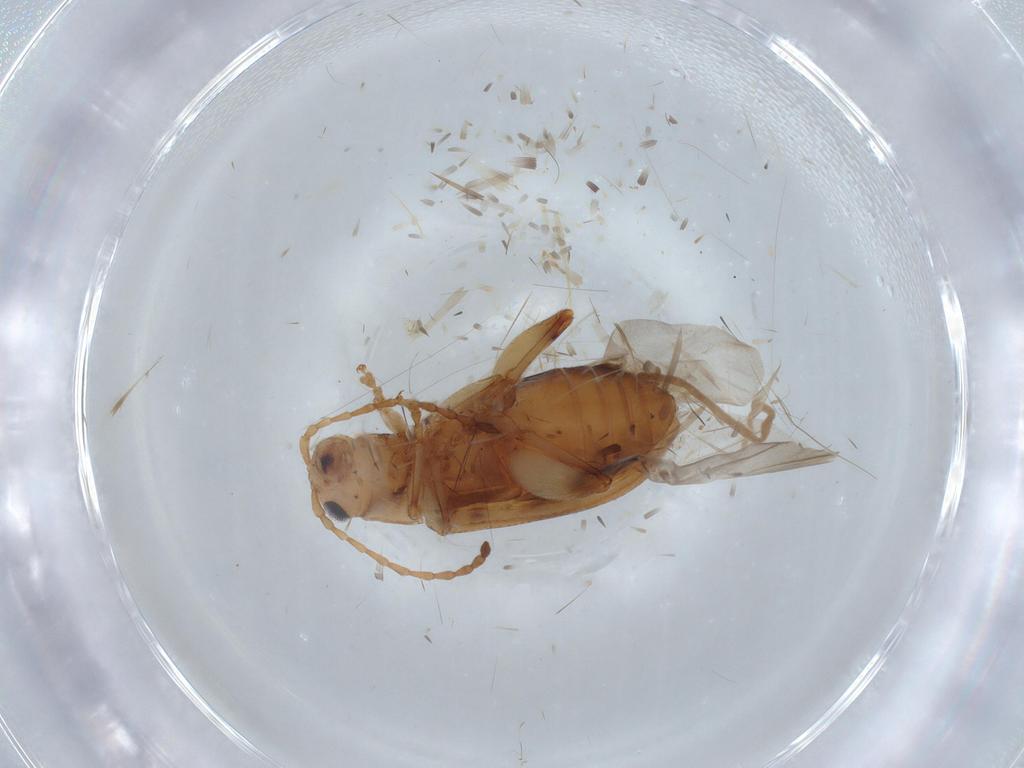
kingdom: Animalia
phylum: Arthropoda
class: Insecta
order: Coleoptera
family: Chrysomelidae
